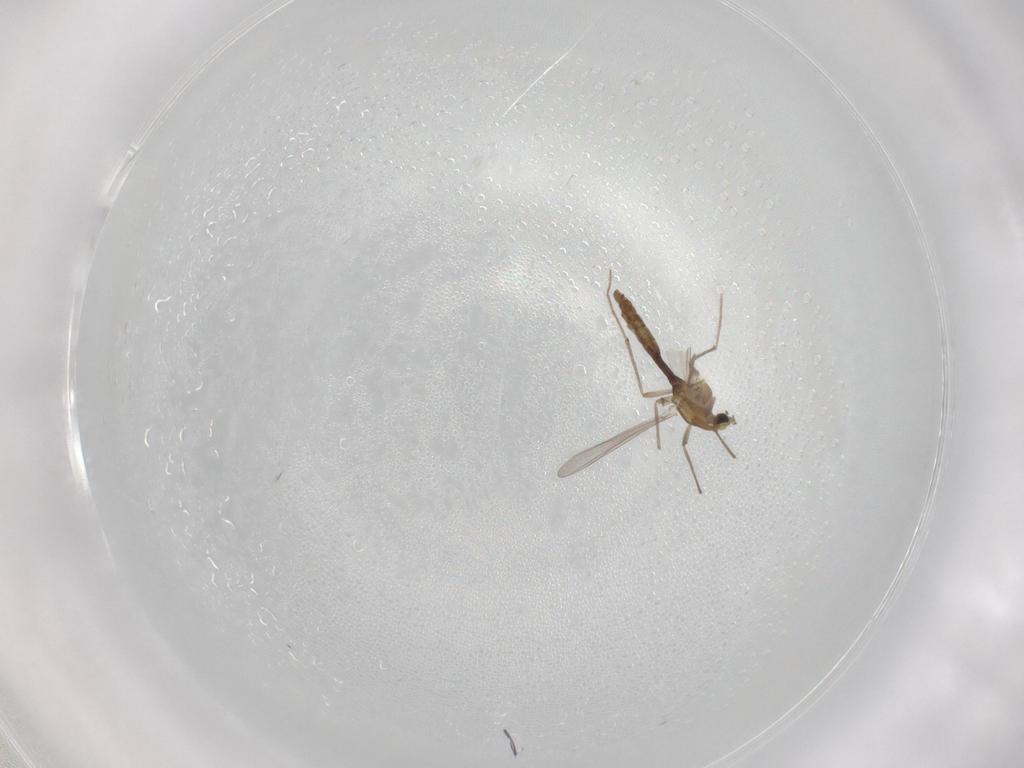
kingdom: Animalia
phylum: Arthropoda
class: Insecta
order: Diptera
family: Chironomidae
